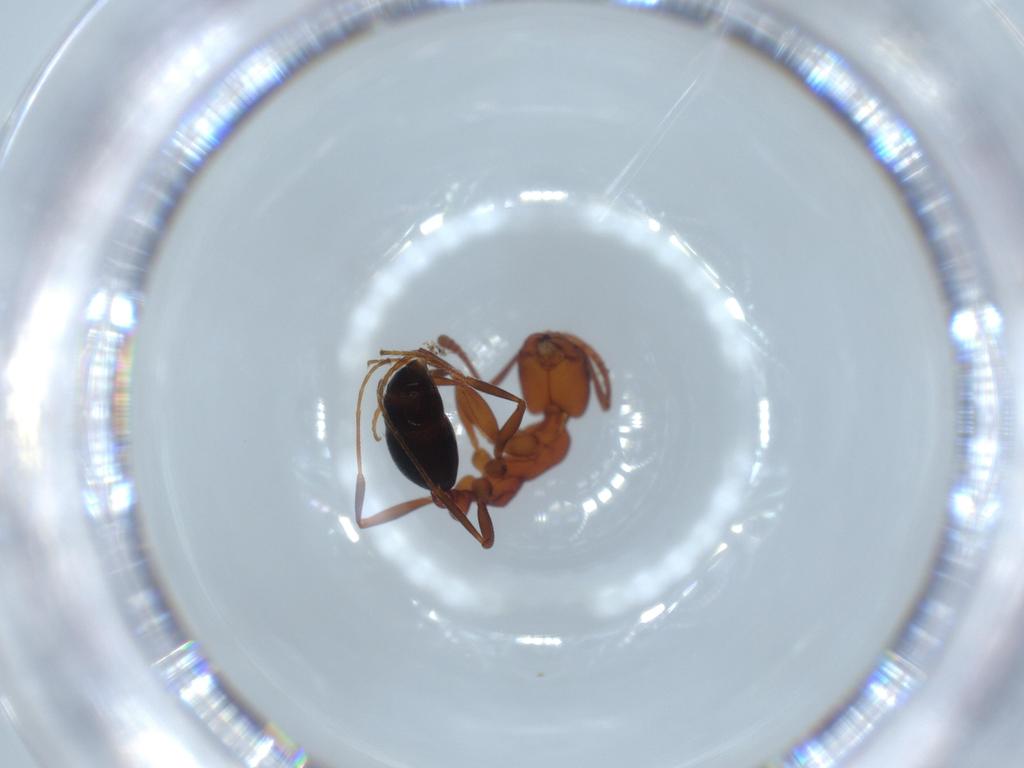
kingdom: Animalia
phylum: Arthropoda
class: Insecta
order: Hymenoptera
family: Formicidae
